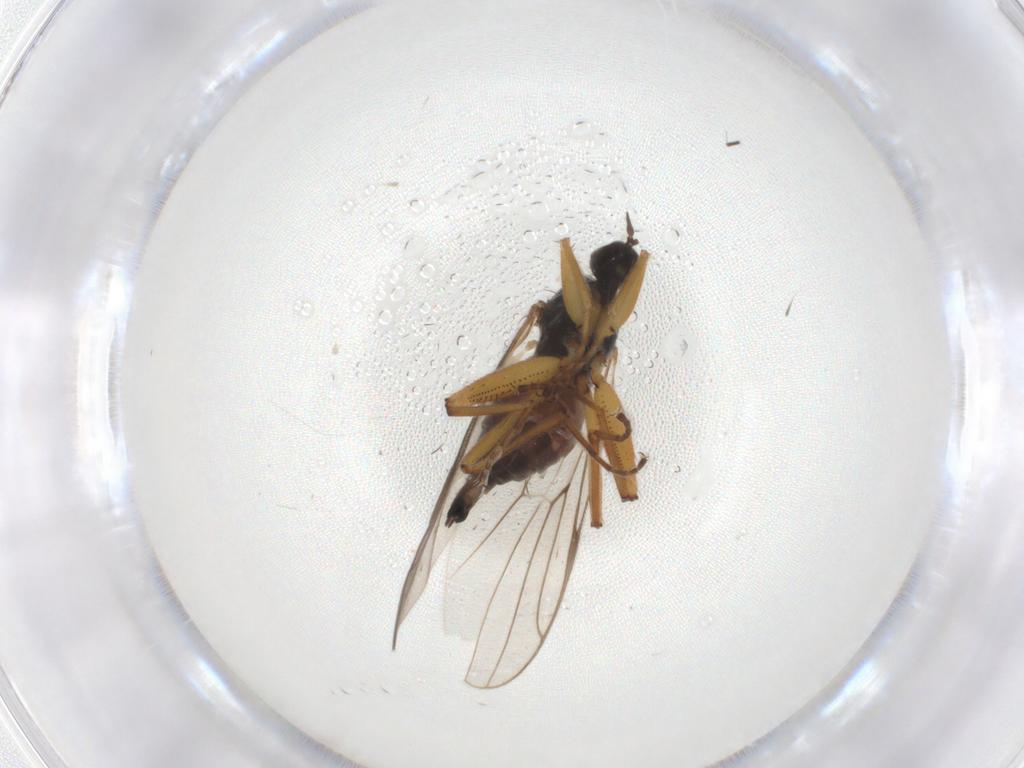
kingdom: Animalia
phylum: Arthropoda
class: Insecta
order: Diptera
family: Hybotidae
